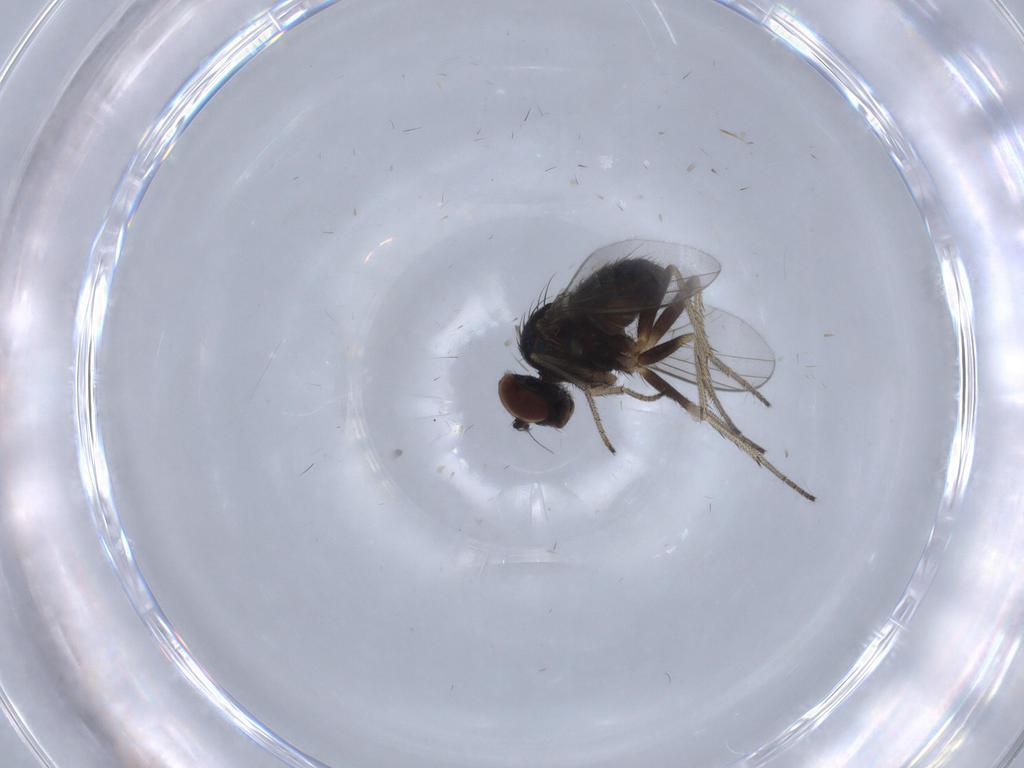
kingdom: Animalia
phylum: Arthropoda
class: Insecta
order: Diptera
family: Dolichopodidae
